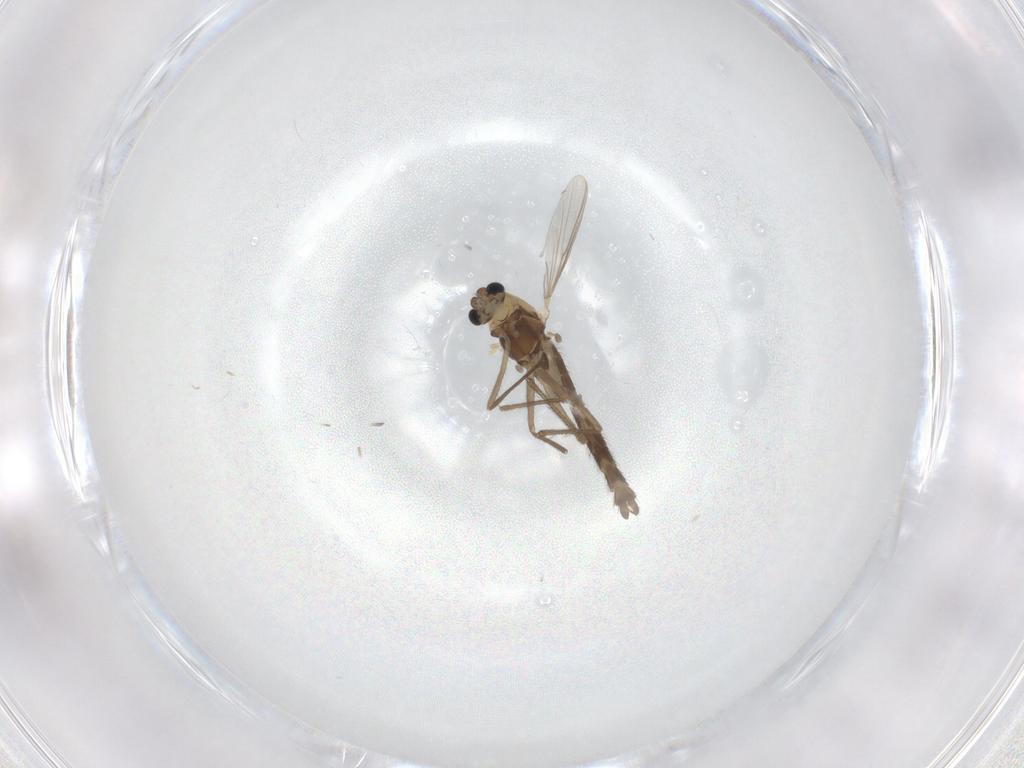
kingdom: Animalia
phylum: Arthropoda
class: Insecta
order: Diptera
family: Chironomidae
